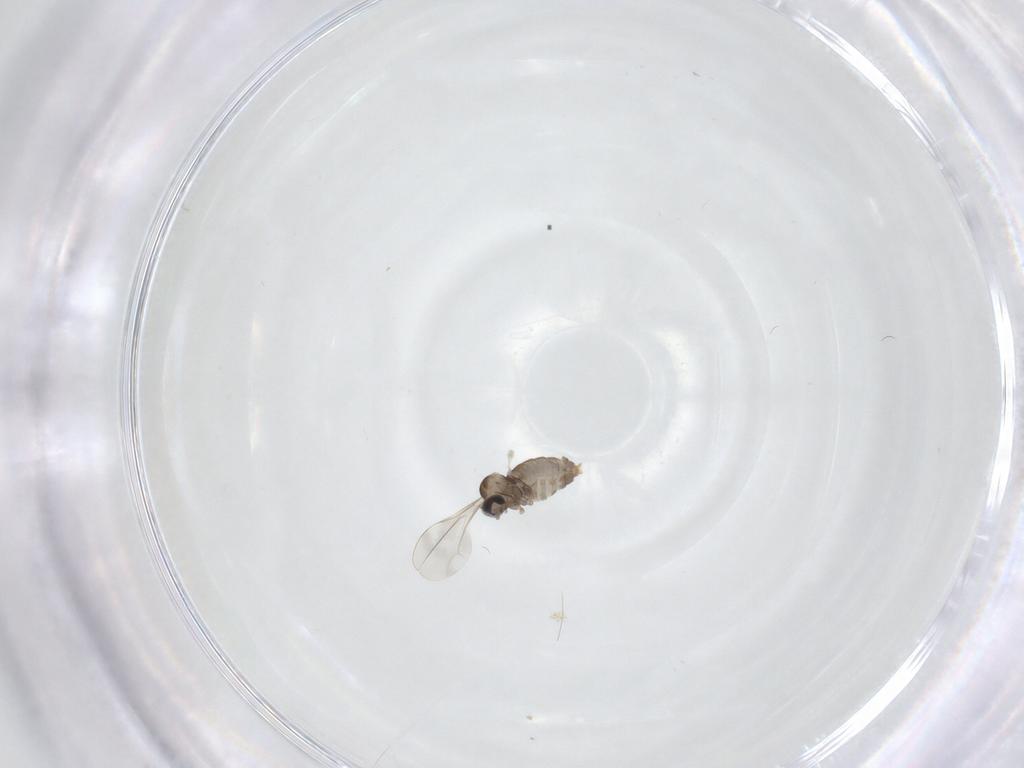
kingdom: Animalia
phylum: Arthropoda
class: Insecta
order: Diptera
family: Cecidomyiidae
